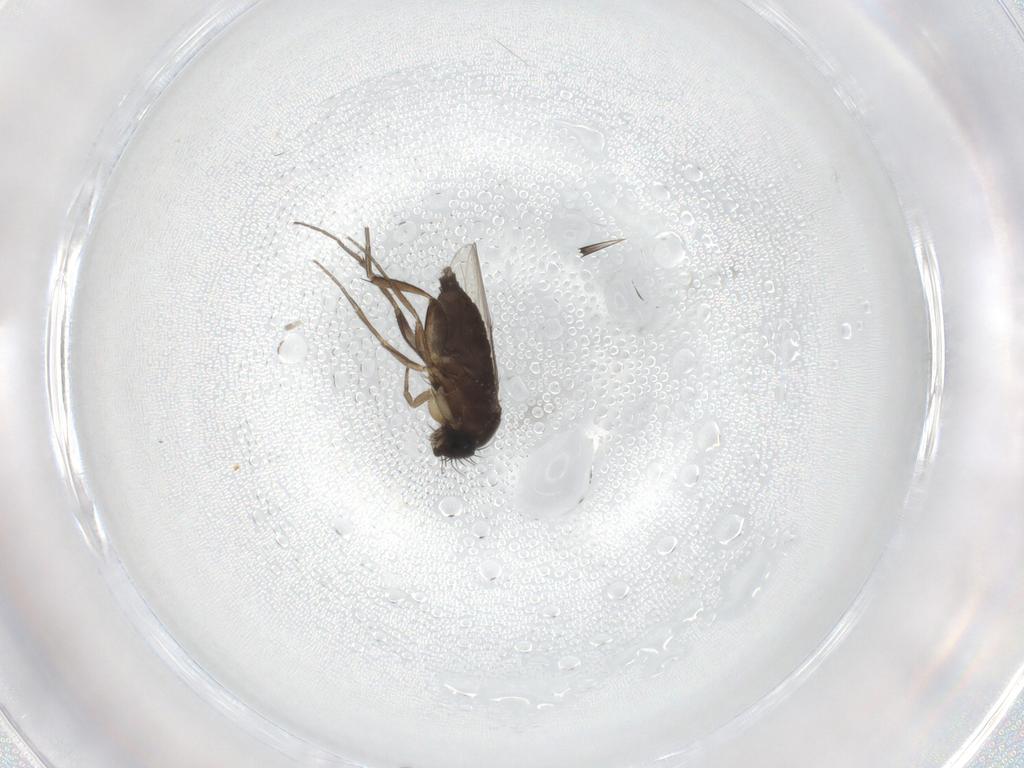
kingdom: Animalia
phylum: Arthropoda
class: Insecta
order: Diptera
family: Phoridae
